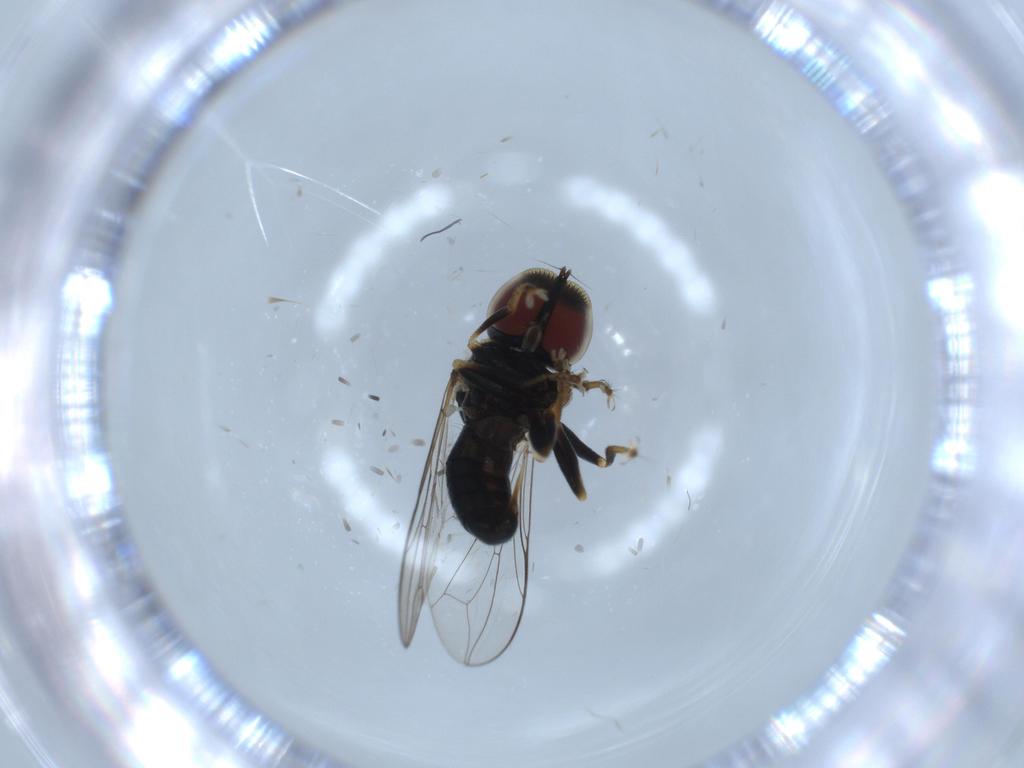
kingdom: Animalia
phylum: Arthropoda
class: Insecta
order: Diptera
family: Pipunculidae
